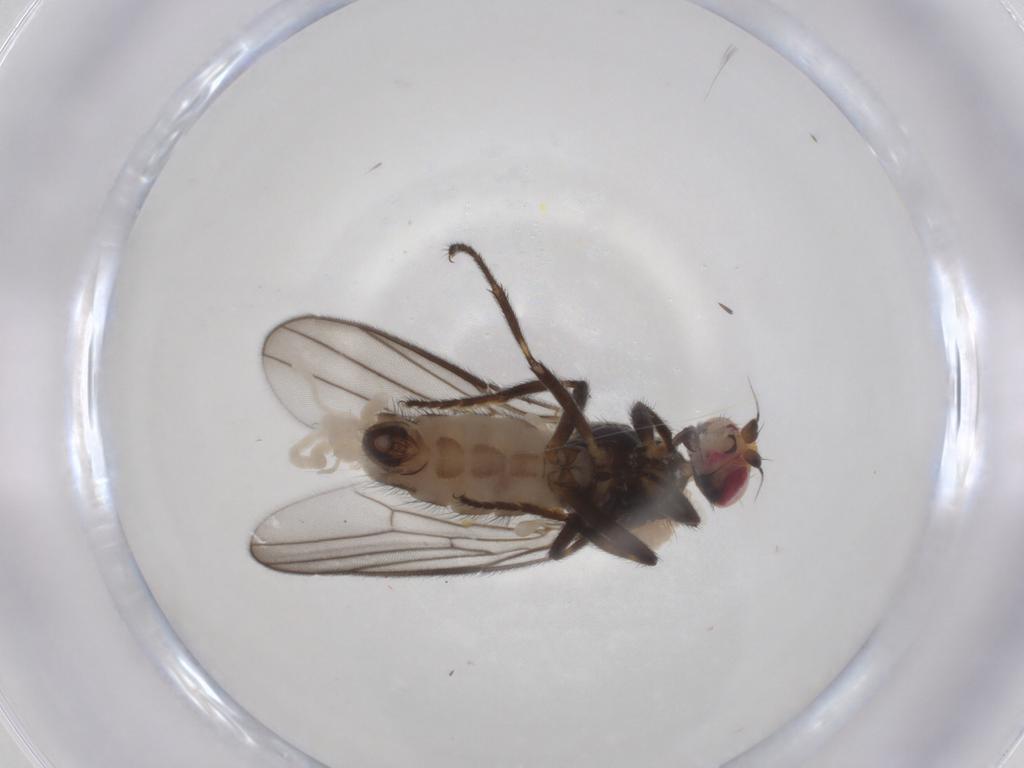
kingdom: Animalia
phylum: Arthropoda
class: Insecta
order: Diptera
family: Chloropidae
